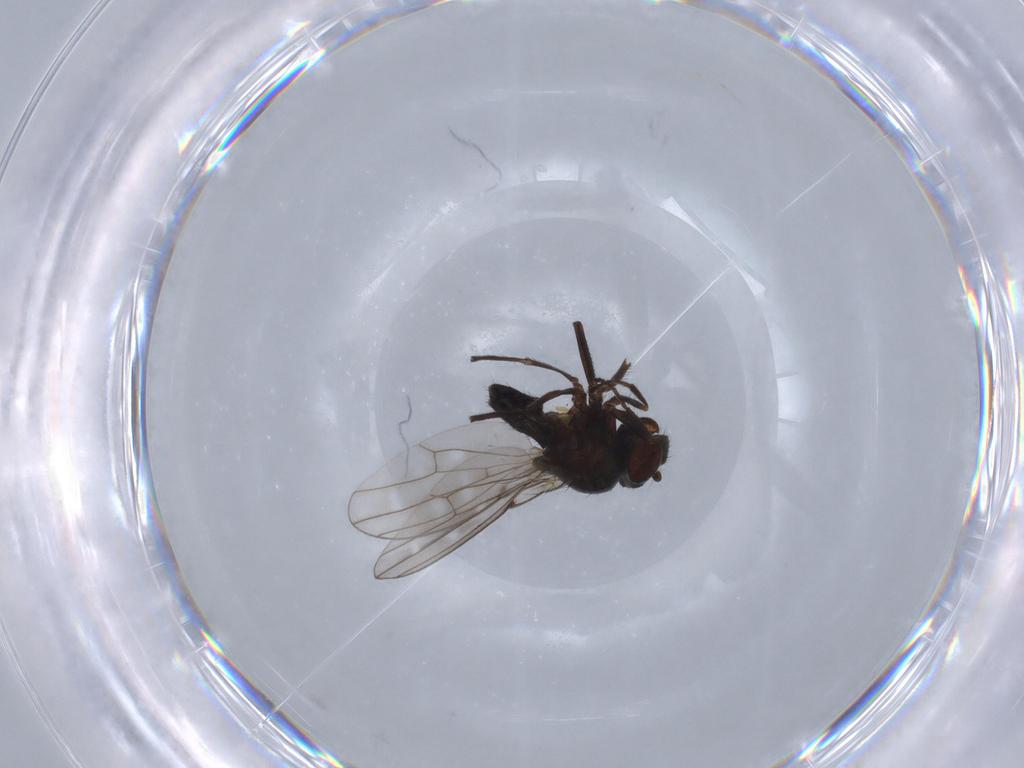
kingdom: Animalia
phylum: Arthropoda
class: Insecta
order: Diptera
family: Ephydridae
